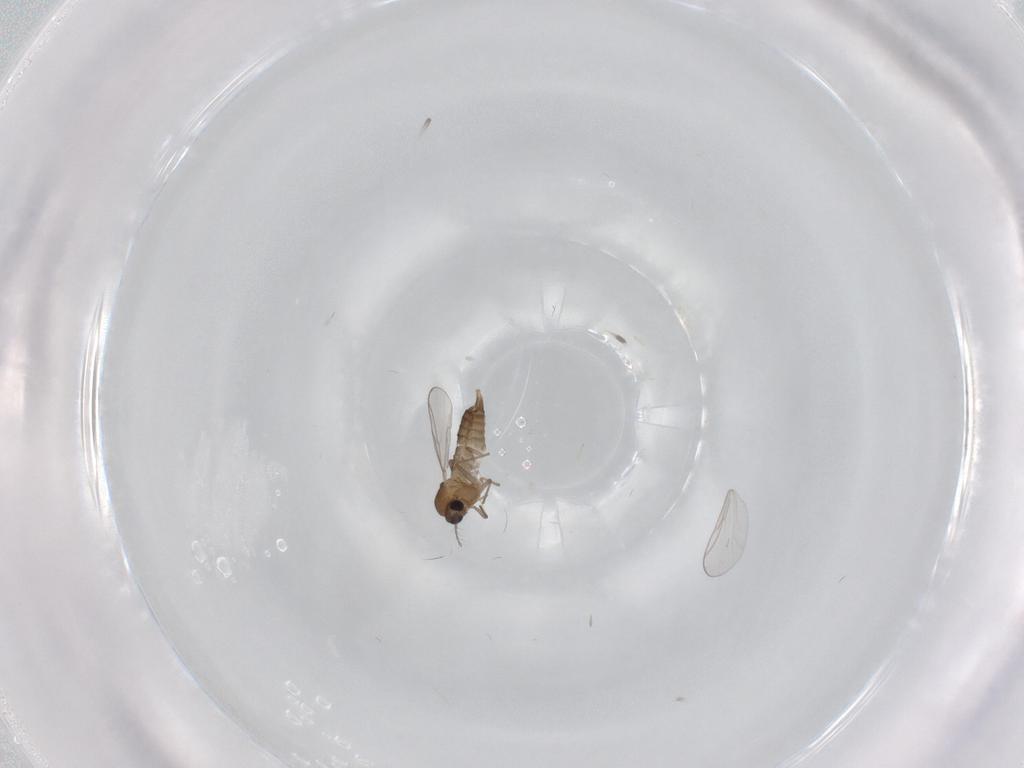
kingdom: Animalia
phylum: Arthropoda
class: Insecta
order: Diptera
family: Chironomidae
